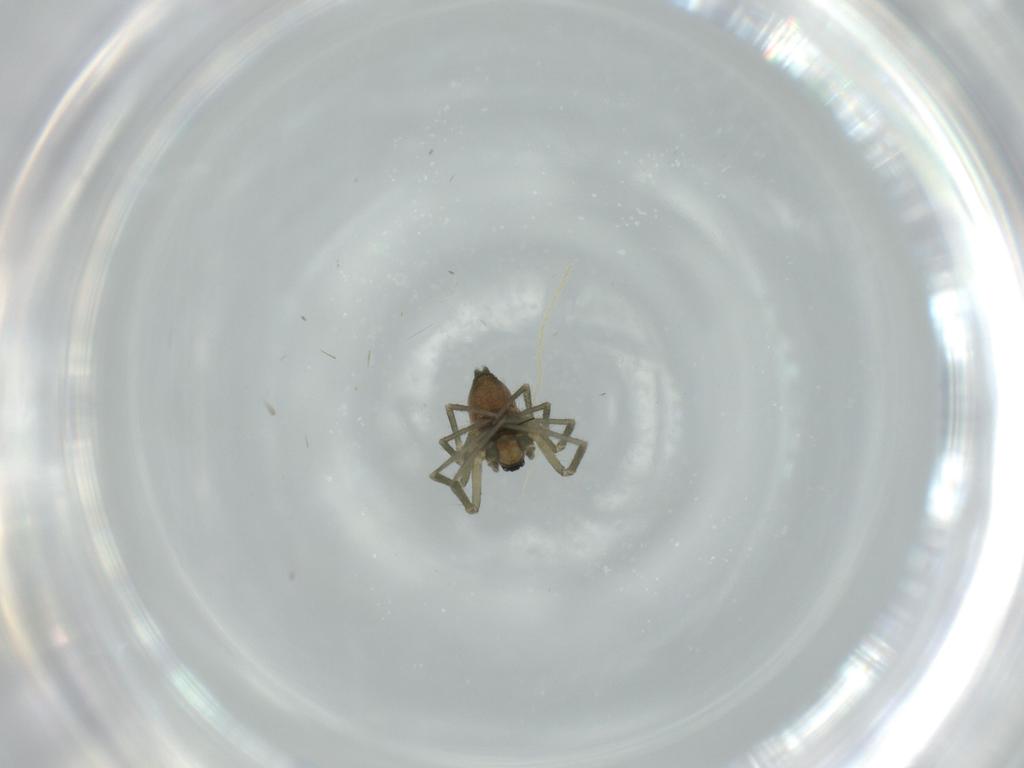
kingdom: Animalia
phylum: Arthropoda
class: Arachnida
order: Araneae
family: Linyphiidae
